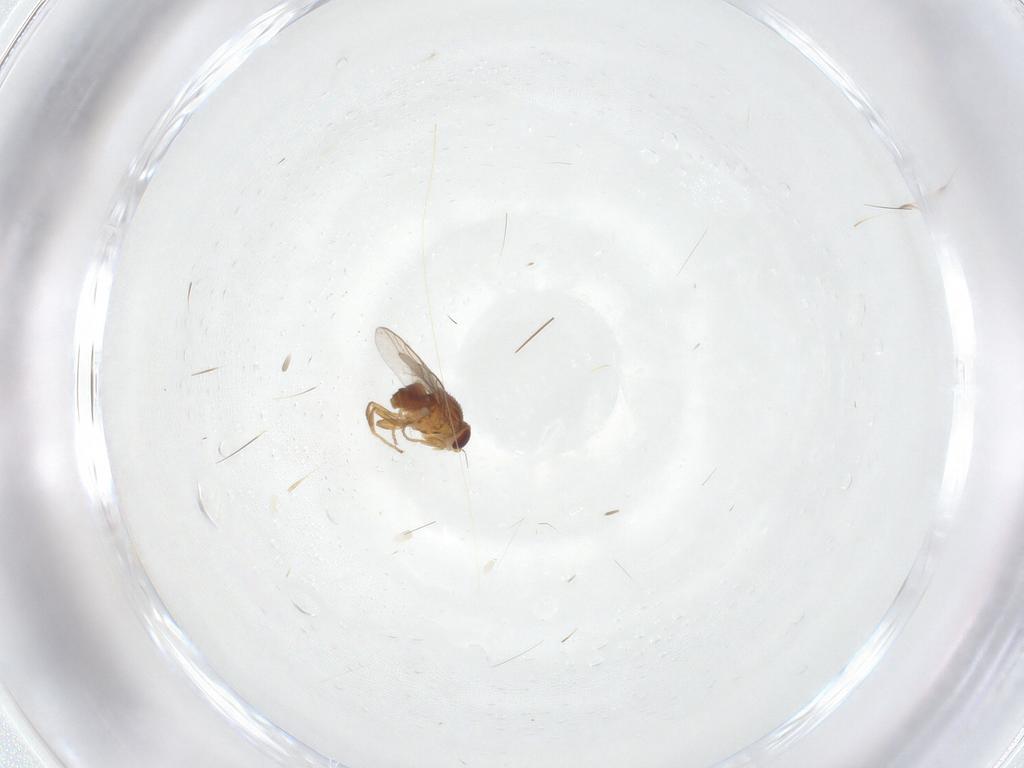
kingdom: Animalia
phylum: Arthropoda
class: Insecta
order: Diptera
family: Chloropidae
